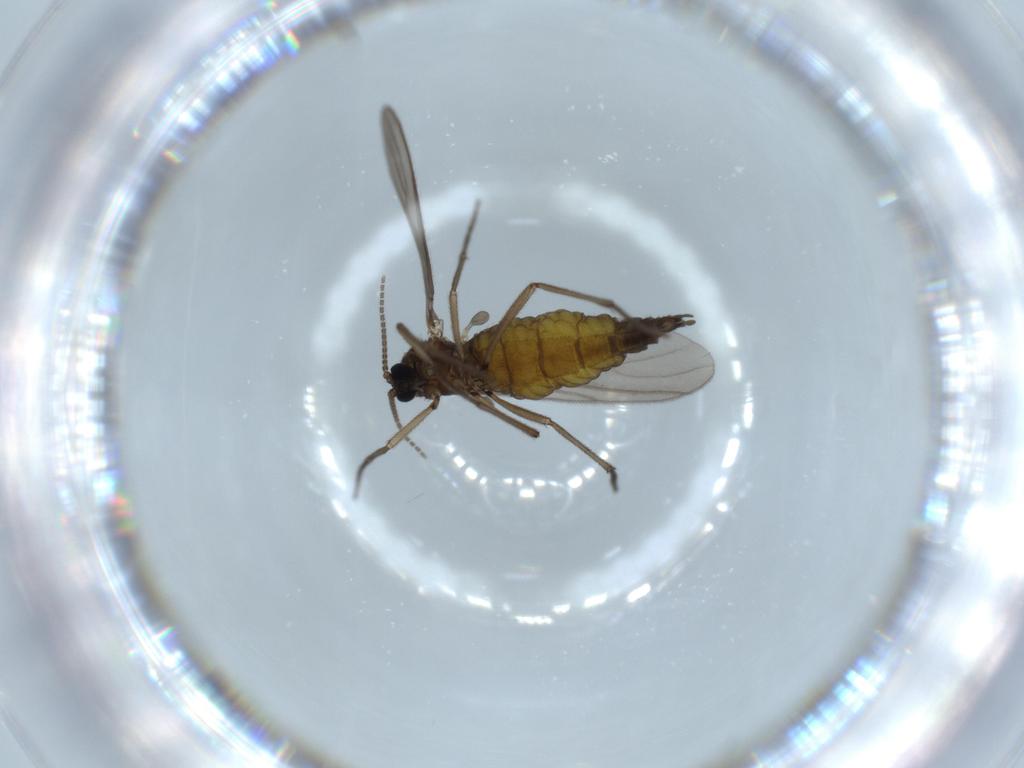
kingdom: Animalia
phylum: Arthropoda
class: Insecta
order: Diptera
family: Sciaridae
